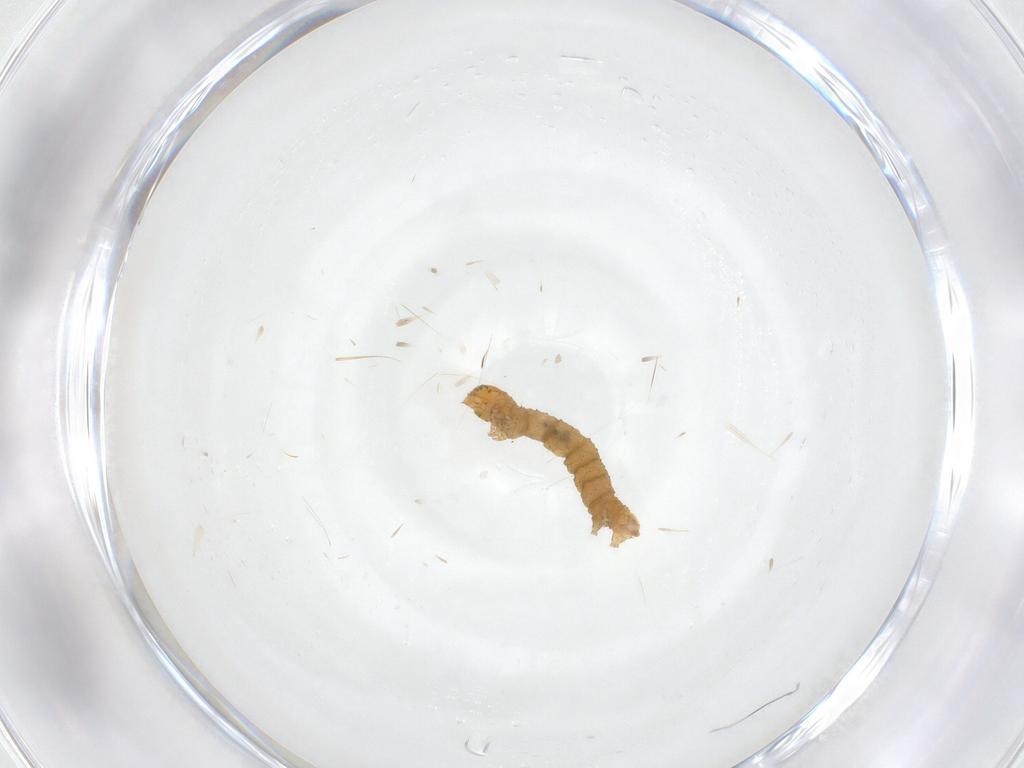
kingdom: Animalia
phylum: Arthropoda
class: Insecta
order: Lepidoptera
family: Geometridae
